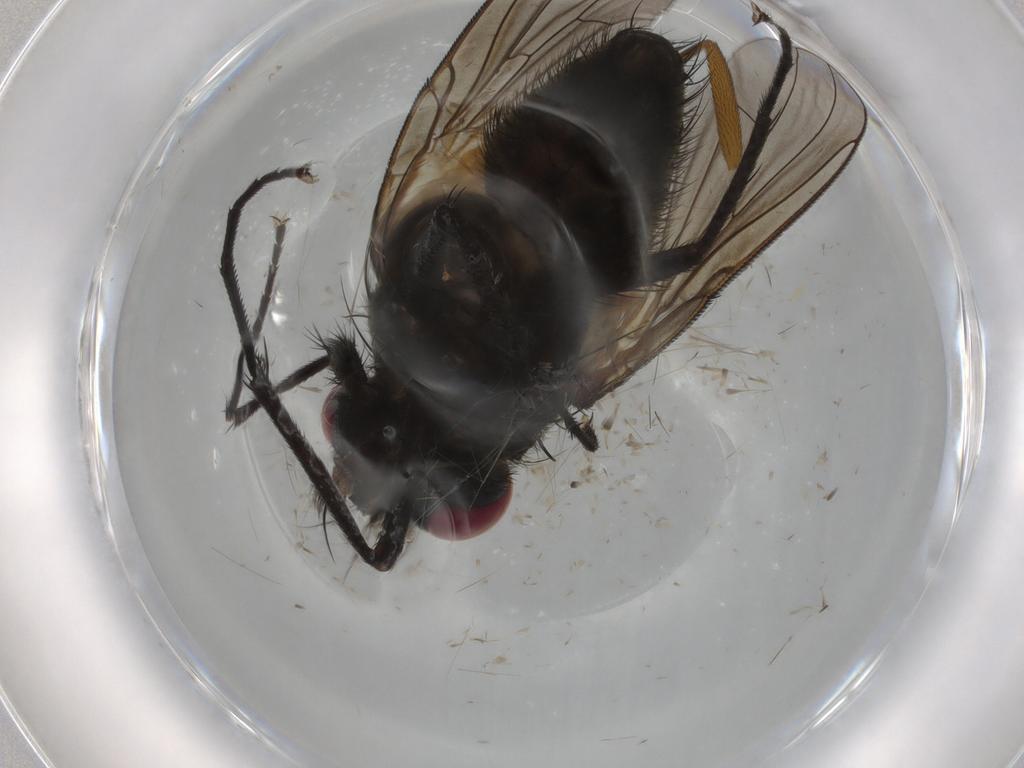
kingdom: Animalia
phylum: Arthropoda
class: Insecta
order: Diptera
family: Muscidae
